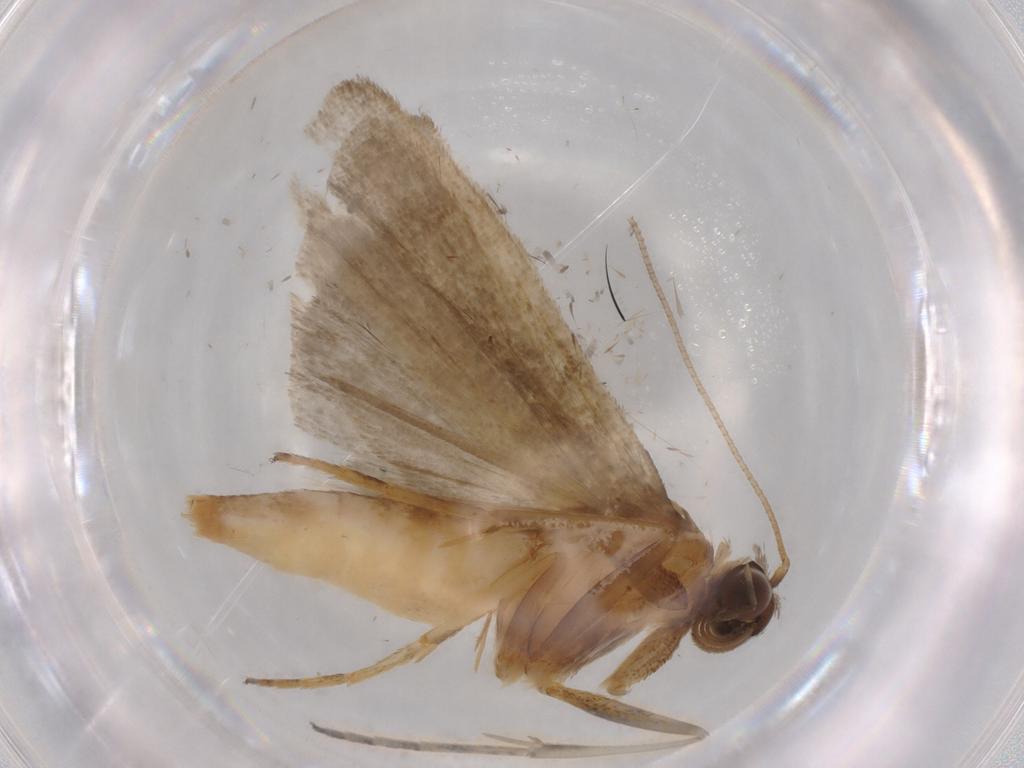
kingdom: Animalia
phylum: Arthropoda
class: Insecta
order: Lepidoptera
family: Noctuidae
